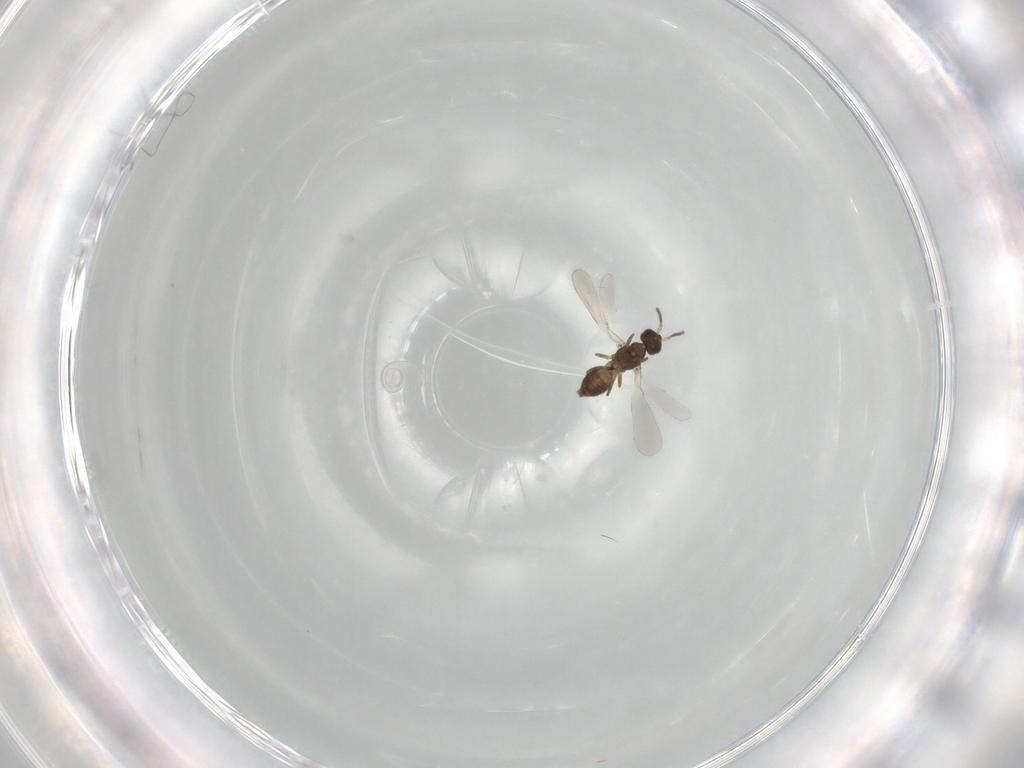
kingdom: Animalia
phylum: Arthropoda
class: Insecta
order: Hymenoptera
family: Bethylidae
